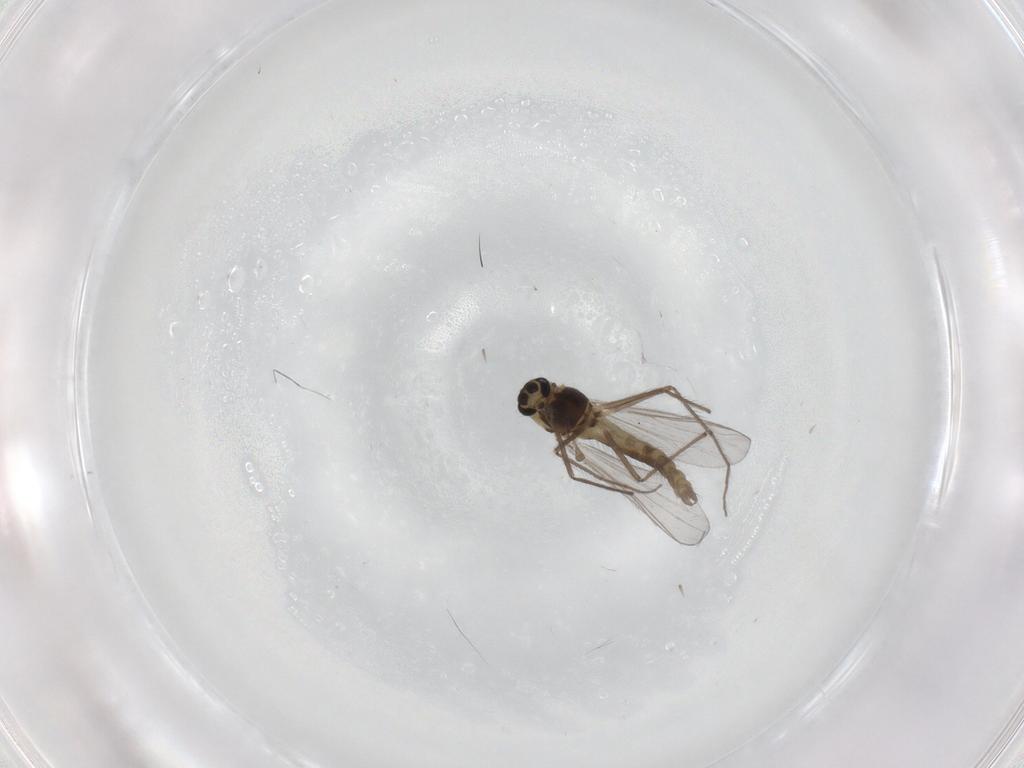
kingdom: Animalia
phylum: Arthropoda
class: Insecta
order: Diptera
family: Chironomidae
